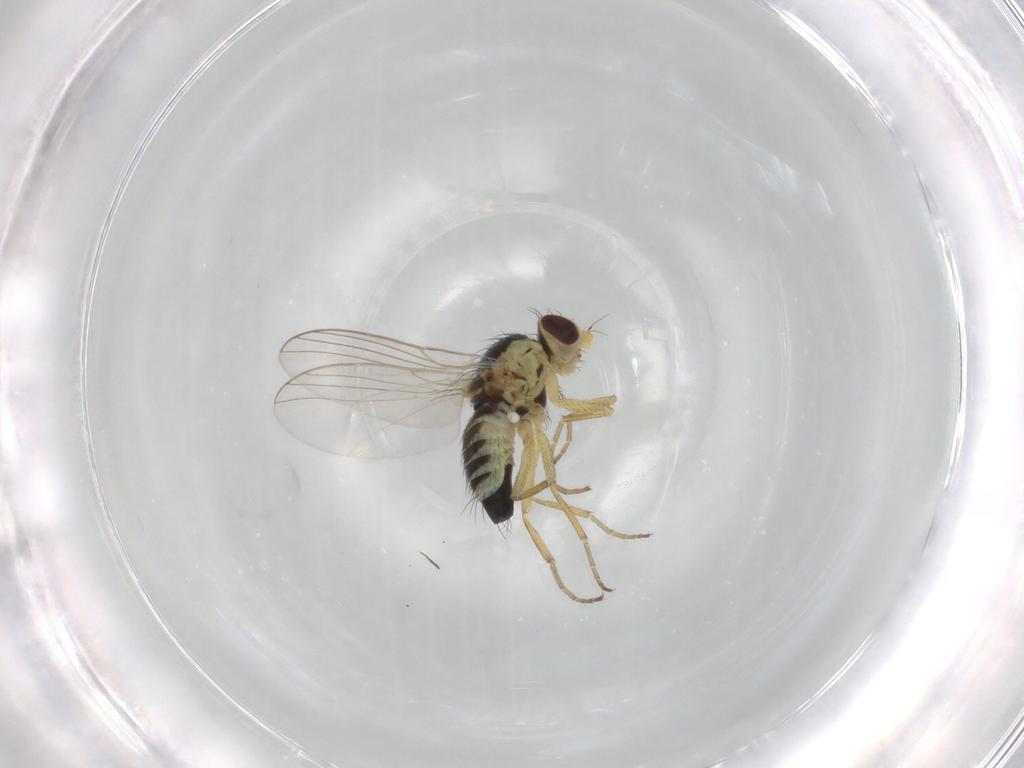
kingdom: Animalia
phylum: Arthropoda
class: Insecta
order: Diptera
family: Agromyzidae
